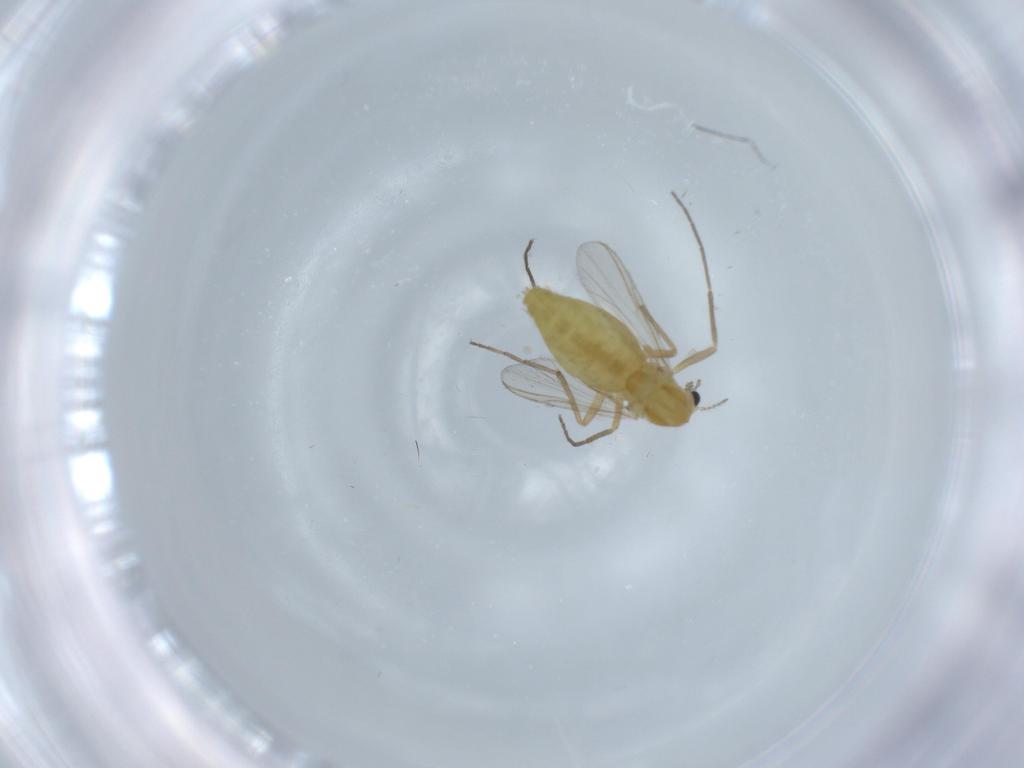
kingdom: Animalia
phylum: Arthropoda
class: Insecta
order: Diptera
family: Chironomidae
